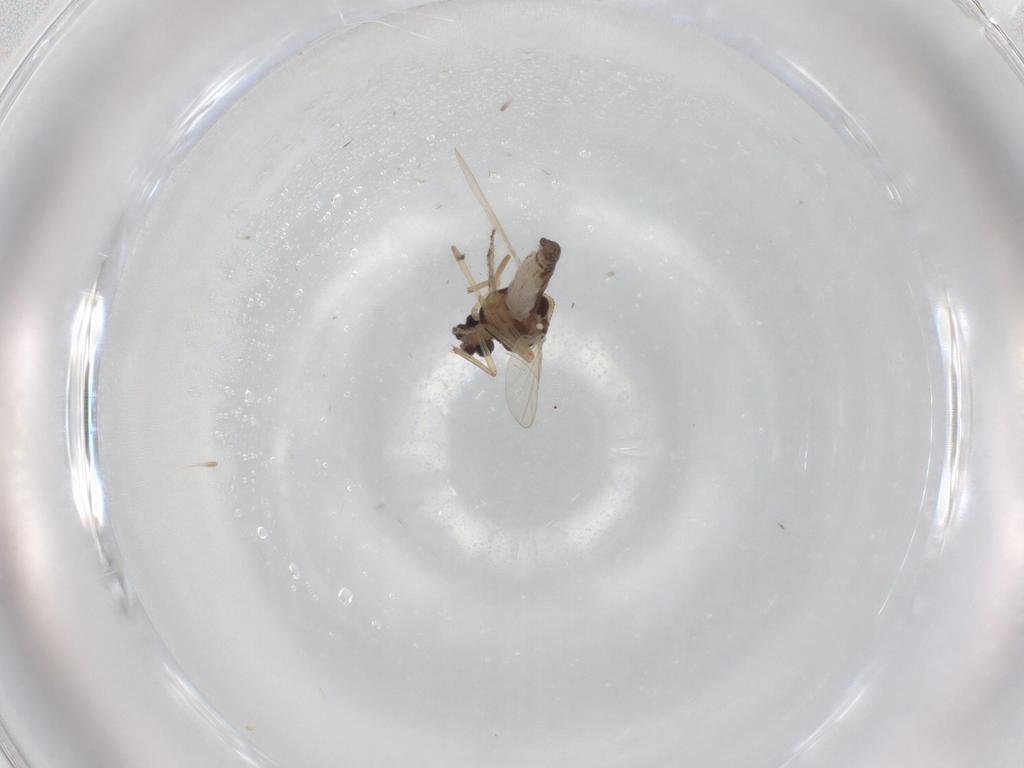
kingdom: Animalia
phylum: Arthropoda
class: Insecta
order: Diptera
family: Ceratopogonidae
